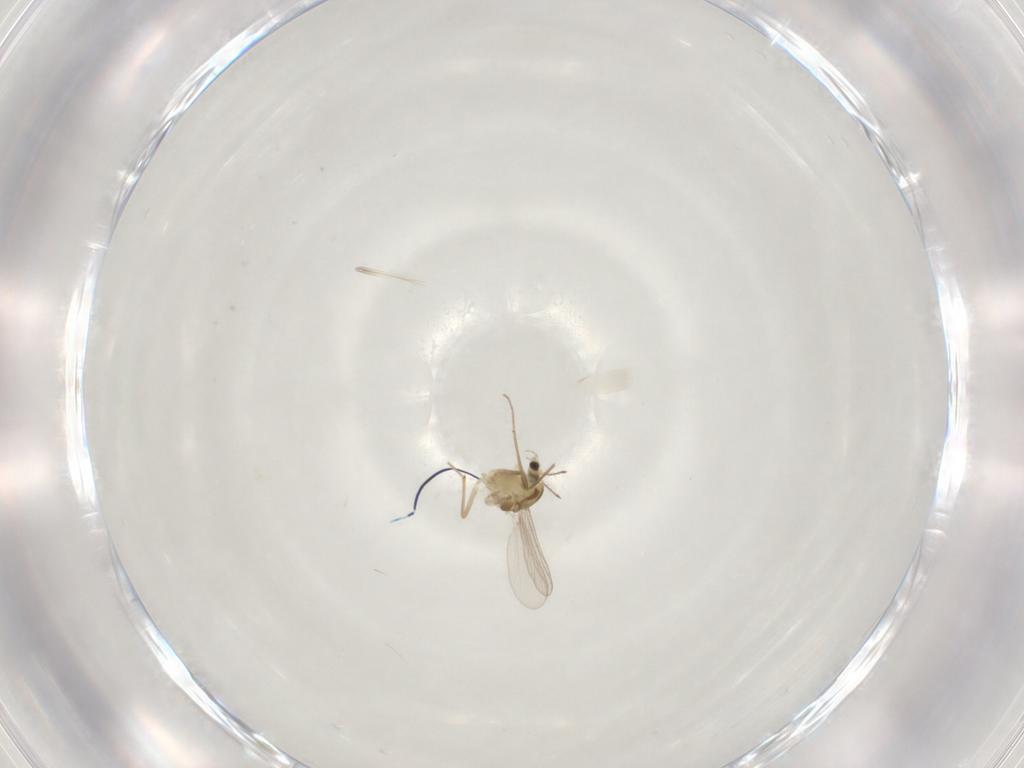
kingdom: Animalia
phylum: Arthropoda
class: Insecta
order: Diptera
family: Chironomidae
